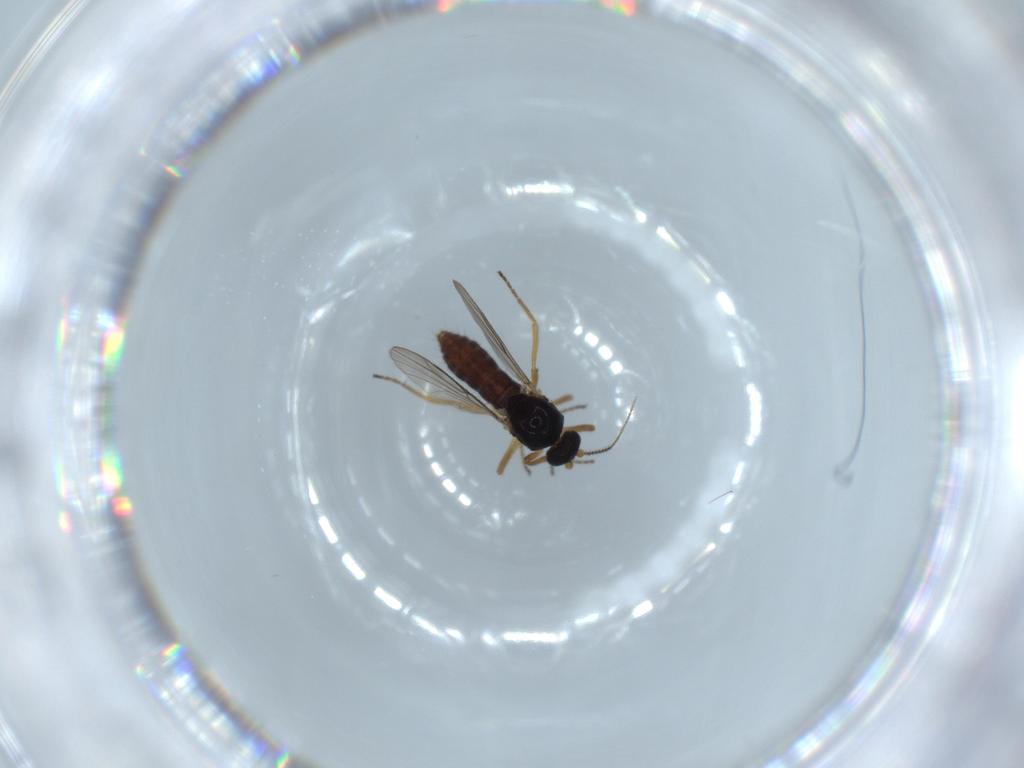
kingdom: Animalia
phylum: Arthropoda
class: Insecta
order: Diptera
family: Ceratopogonidae
